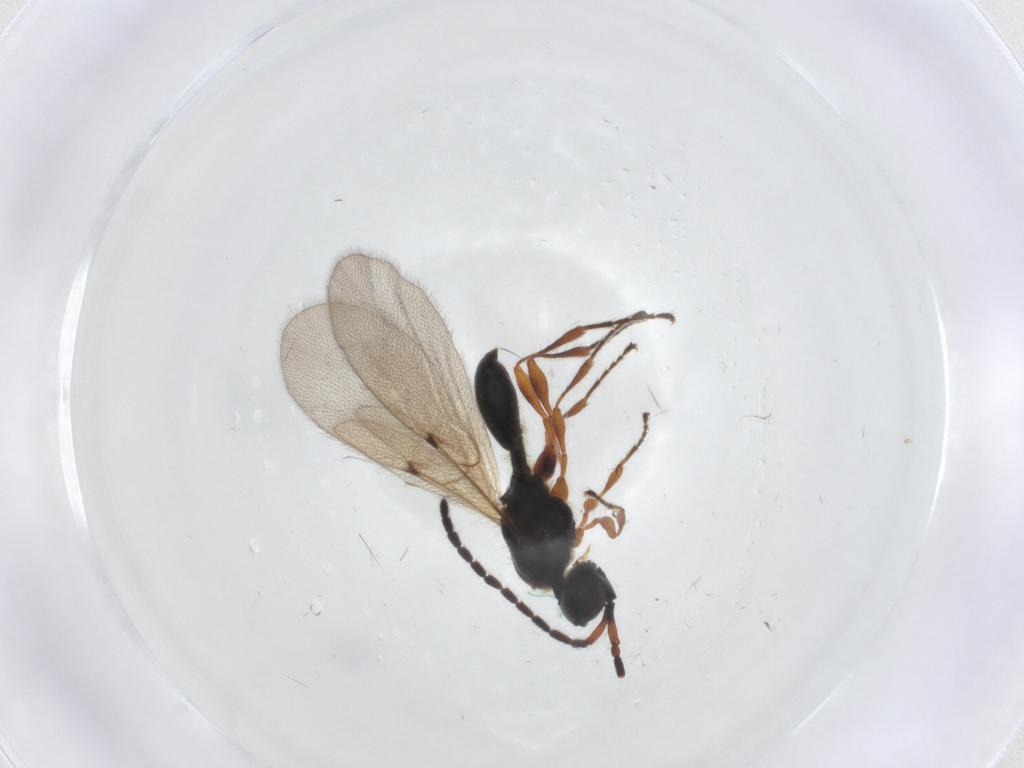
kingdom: Animalia
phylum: Arthropoda
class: Insecta
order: Hymenoptera
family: Diapriidae
